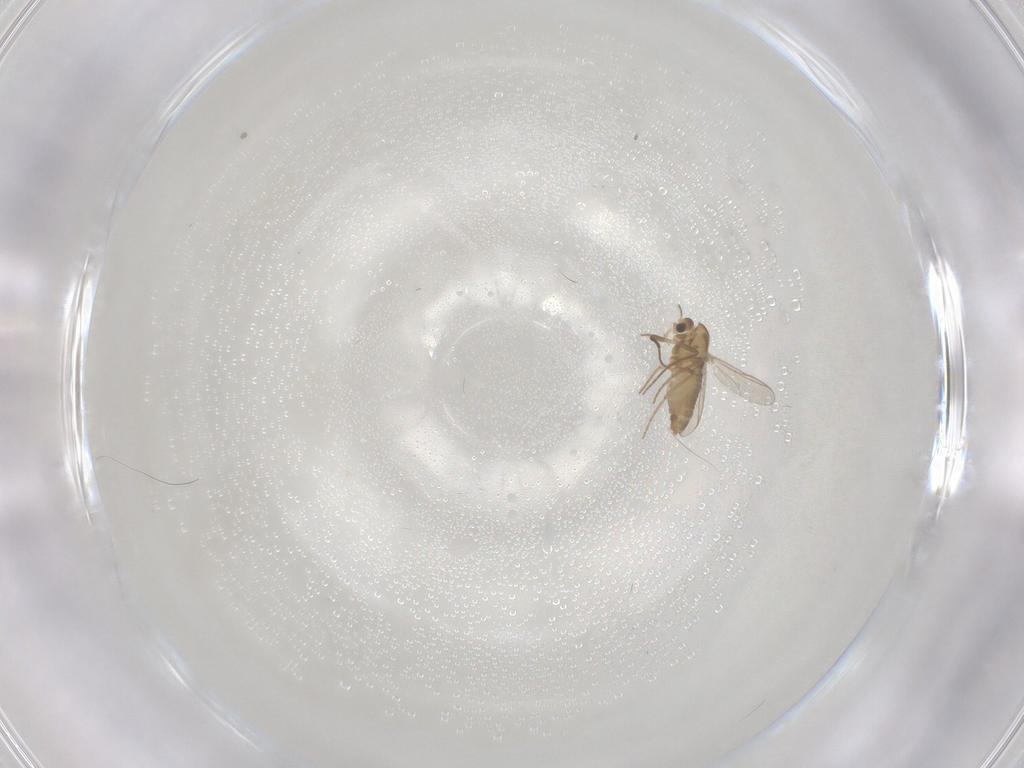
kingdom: Animalia
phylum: Arthropoda
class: Insecta
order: Diptera
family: Chironomidae
